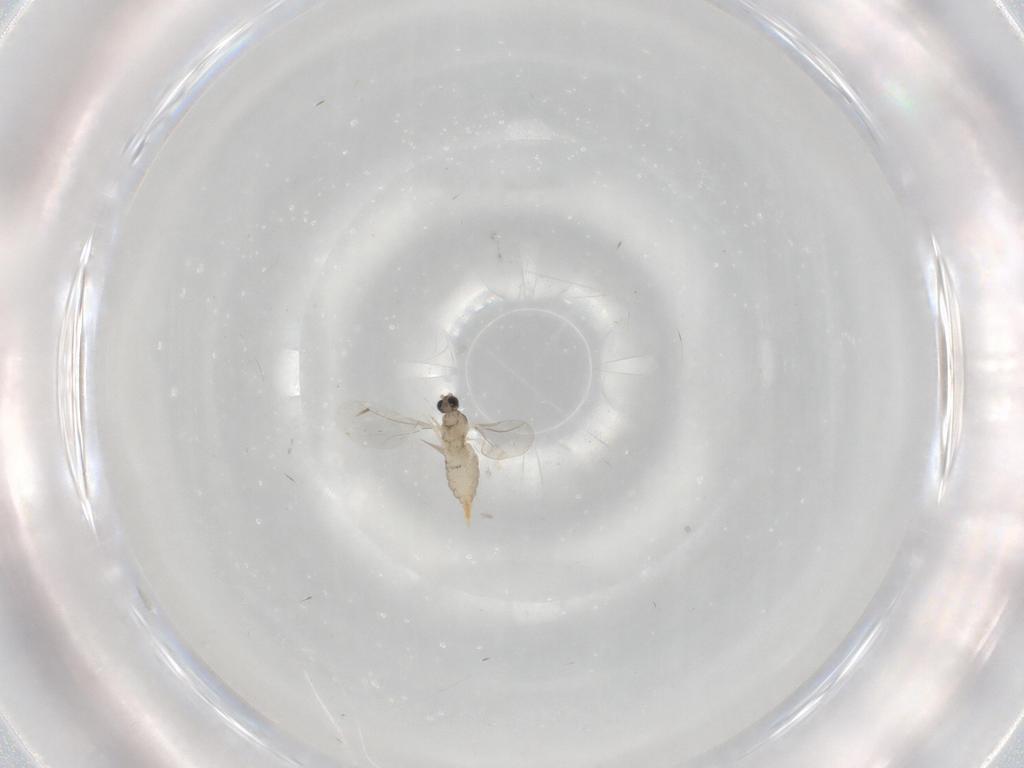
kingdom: Animalia
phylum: Arthropoda
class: Insecta
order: Diptera
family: Cecidomyiidae
